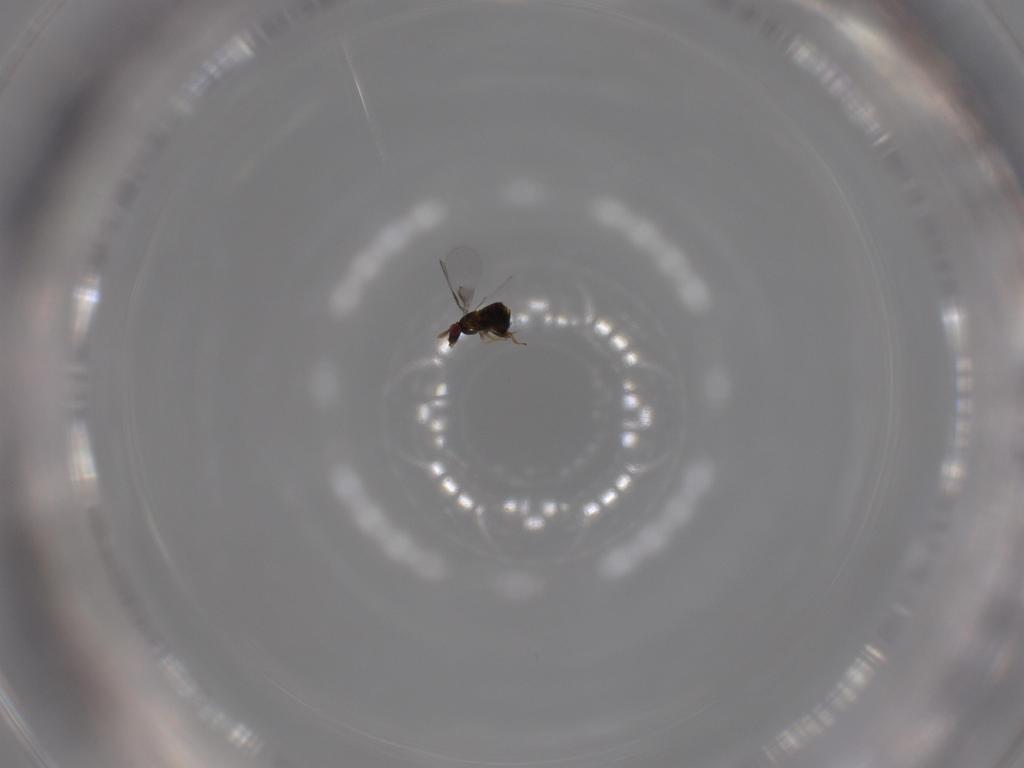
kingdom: Animalia
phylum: Arthropoda
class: Insecta
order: Hymenoptera
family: Trichogrammatidae
